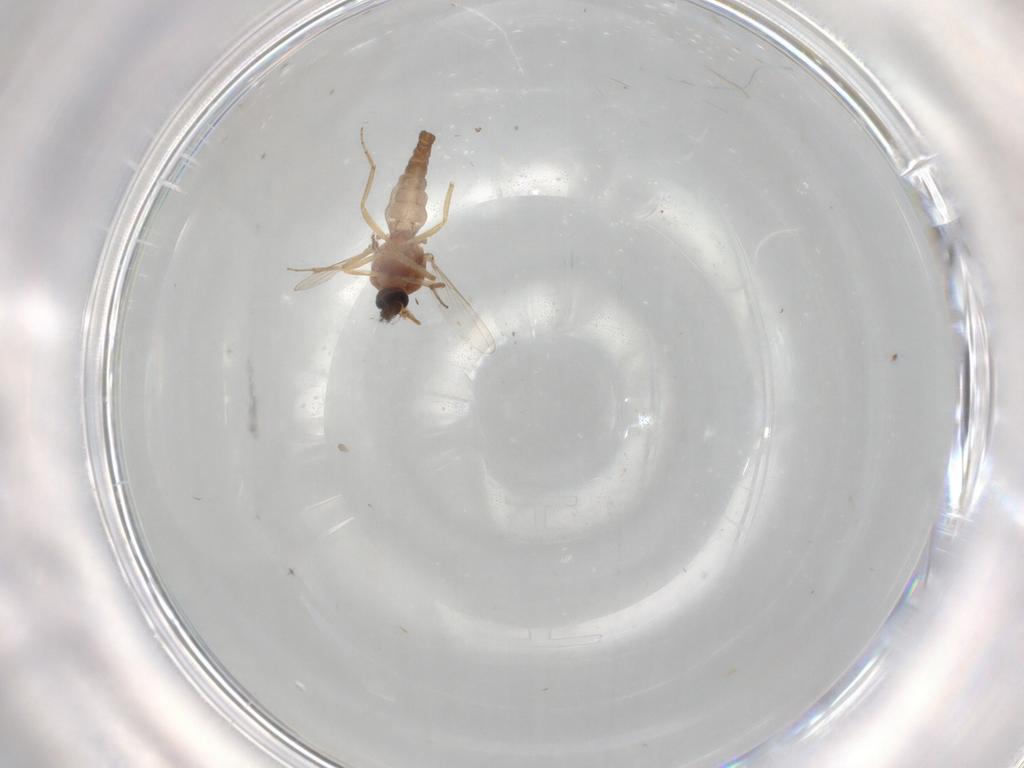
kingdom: Animalia
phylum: Arthropoda
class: Insecta
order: Diptera
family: Ceratopogonidae
